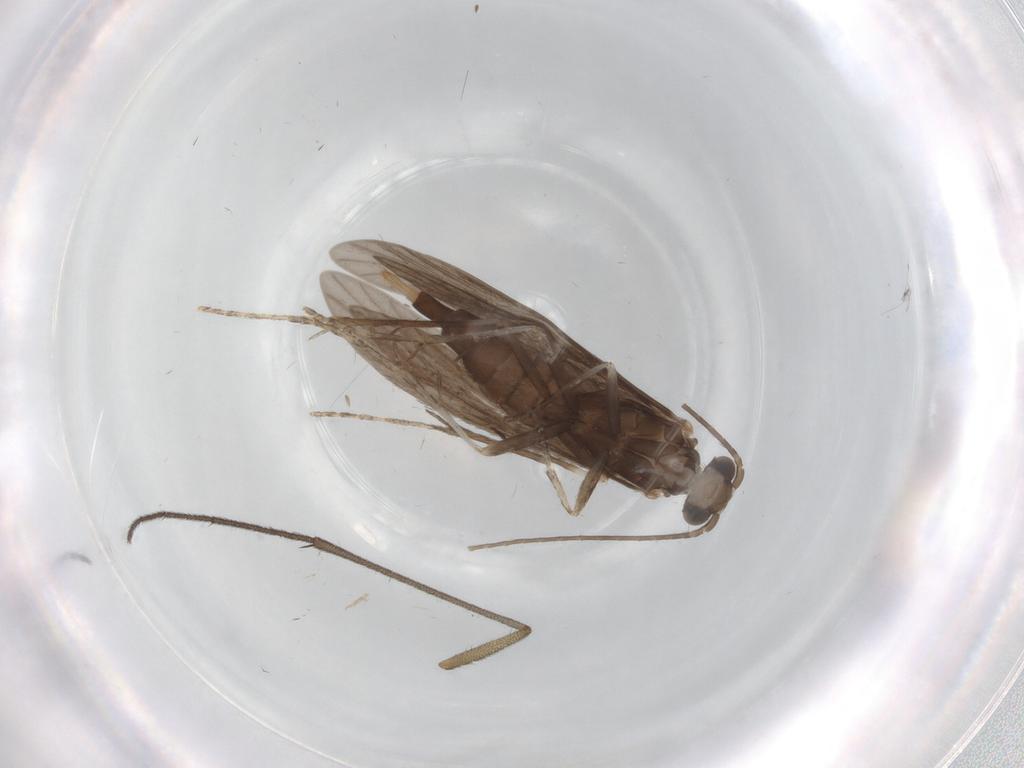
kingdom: Animalia
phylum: Arthropoda
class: Insecta
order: Trichoptera
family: Xiphocentronidae
